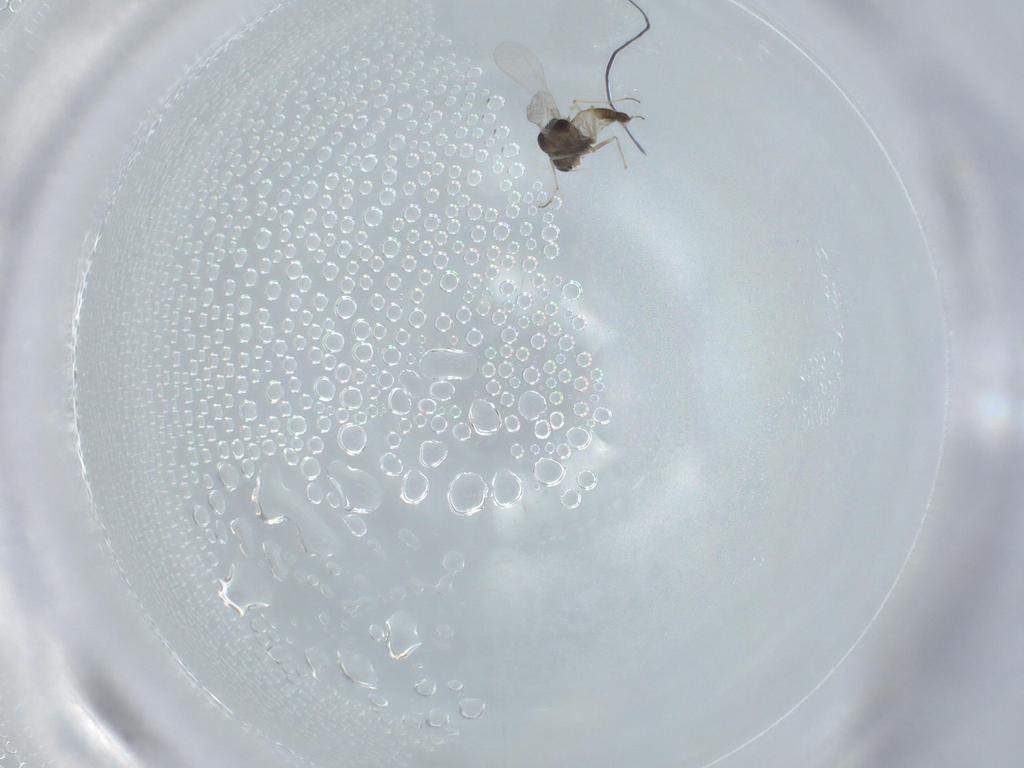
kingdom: Animalia
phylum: Arthropoda
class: Insecta
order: Diptera
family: Chironomidae
